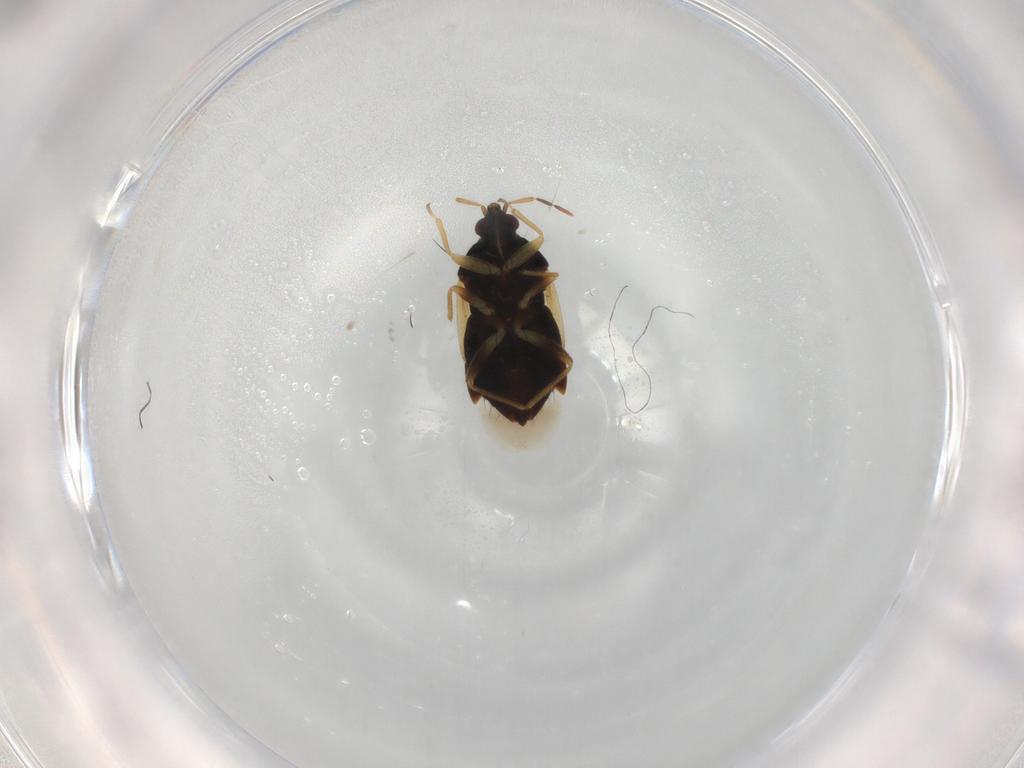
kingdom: Animalia
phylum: Arthropoda
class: Insecta
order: Hemiptera
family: Anthocoridae
